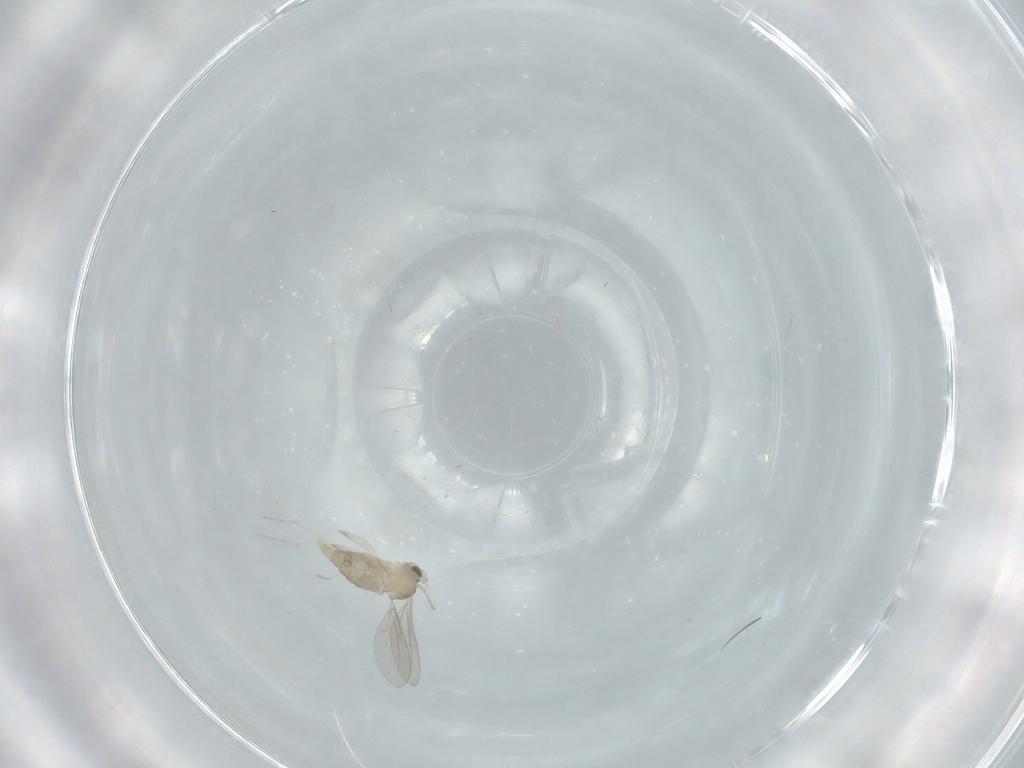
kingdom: Animalia
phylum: Arthropoda
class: Insecta
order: Diptera
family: Cecidomyiidae
